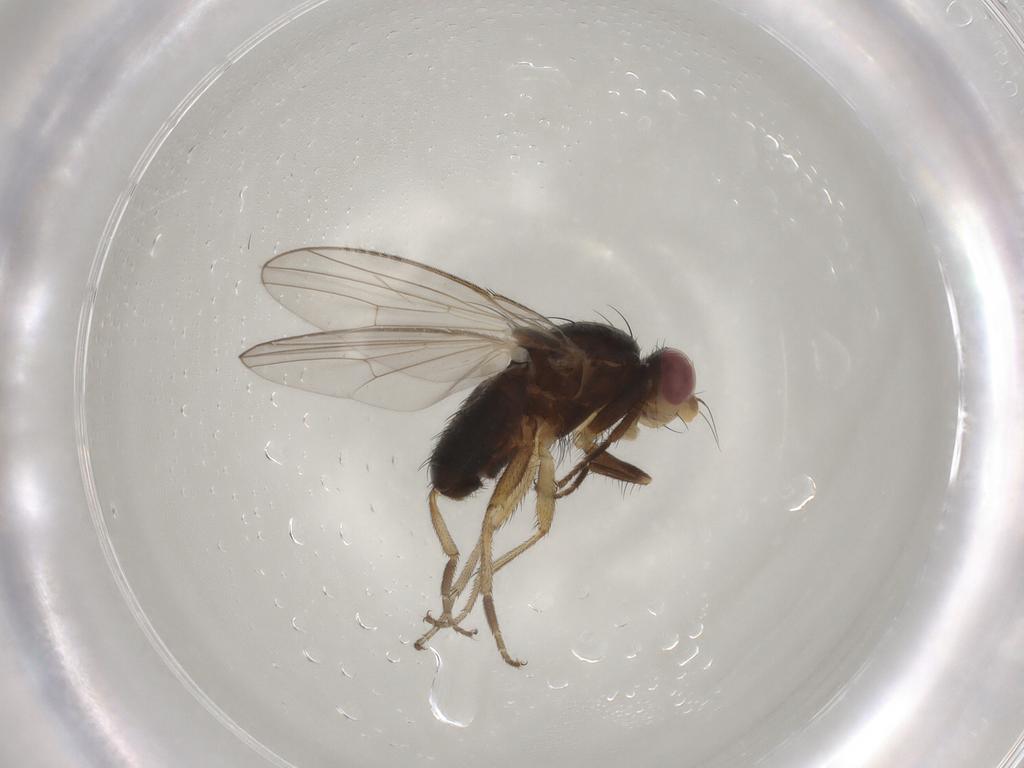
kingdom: Animalia
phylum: Arthropoda
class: Insecta
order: Diptera
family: Heleomyzidae
